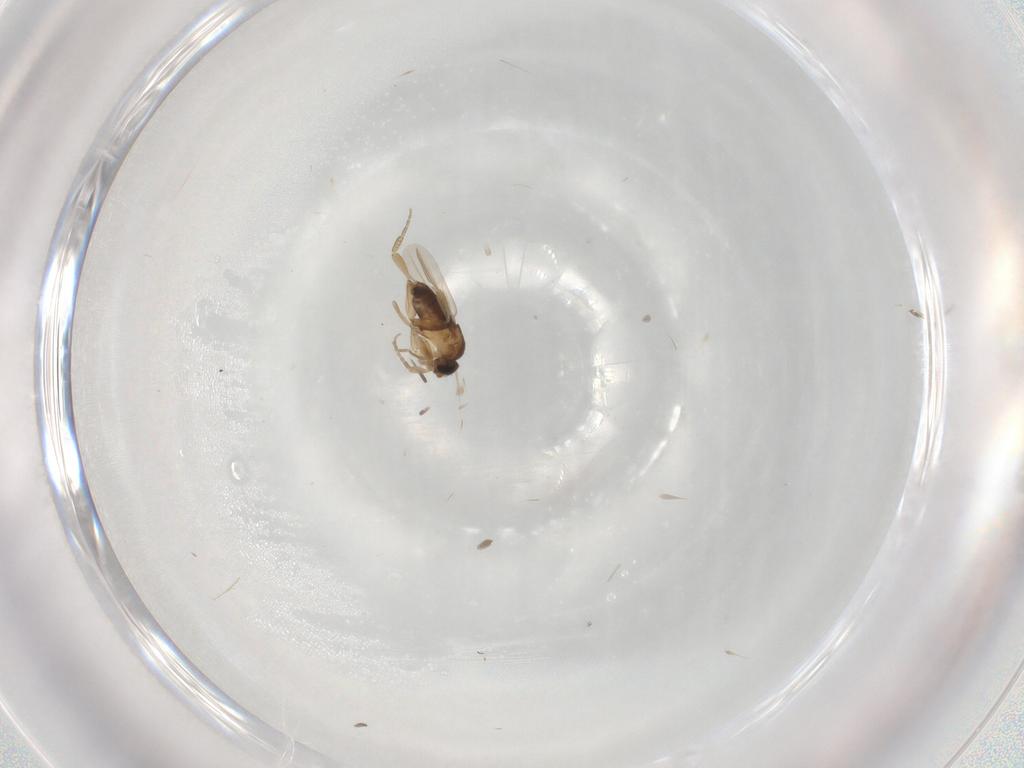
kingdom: Animalia
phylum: Arthropoda
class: Insecta
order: Diptera
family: Phoridae
